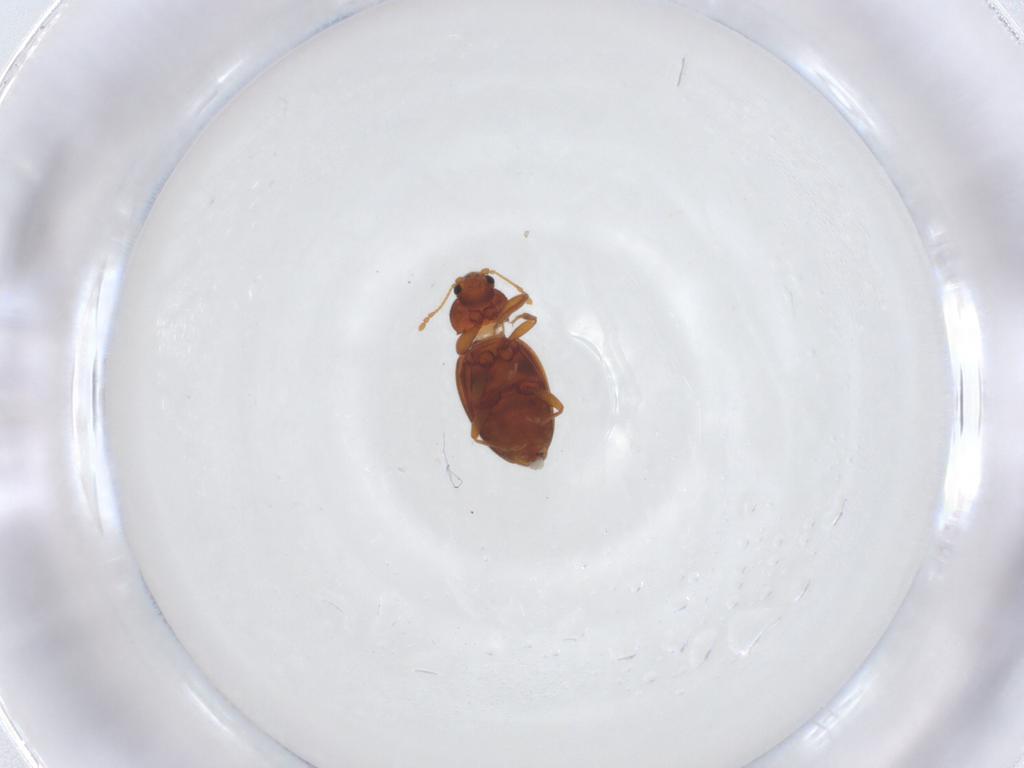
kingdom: Animalia
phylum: Arthropoda
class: Insecta
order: Coleoptera
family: Latridiidae
